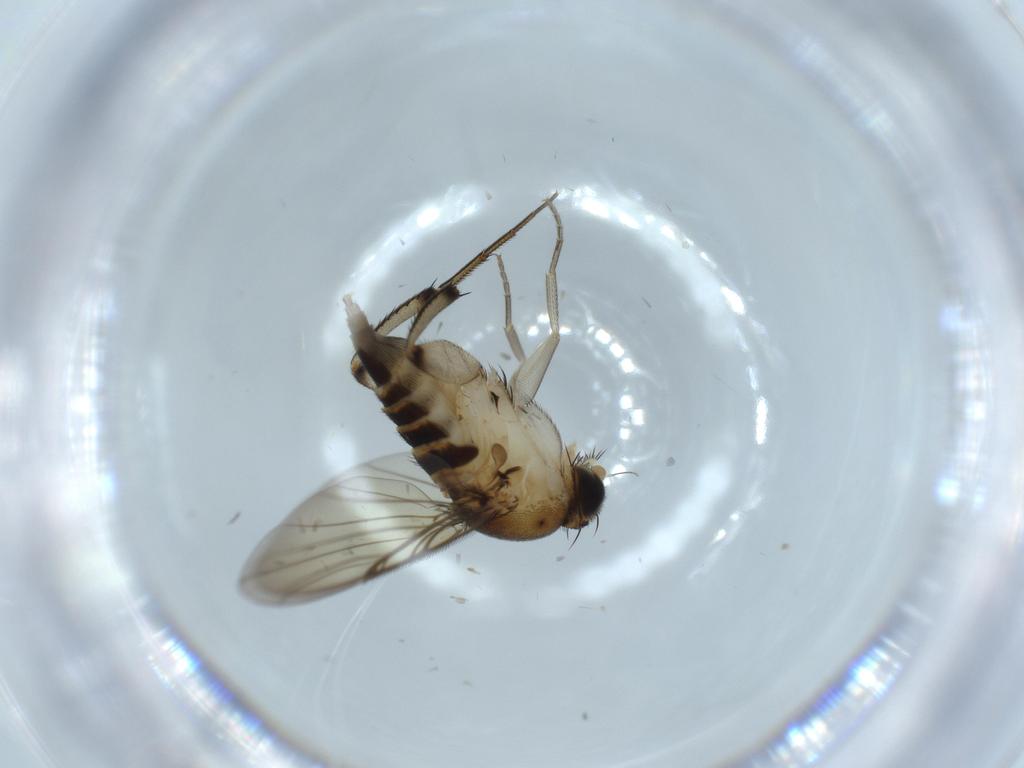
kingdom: Animalia
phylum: Arthropoda
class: Insecta
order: Diptera
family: Phoridae
